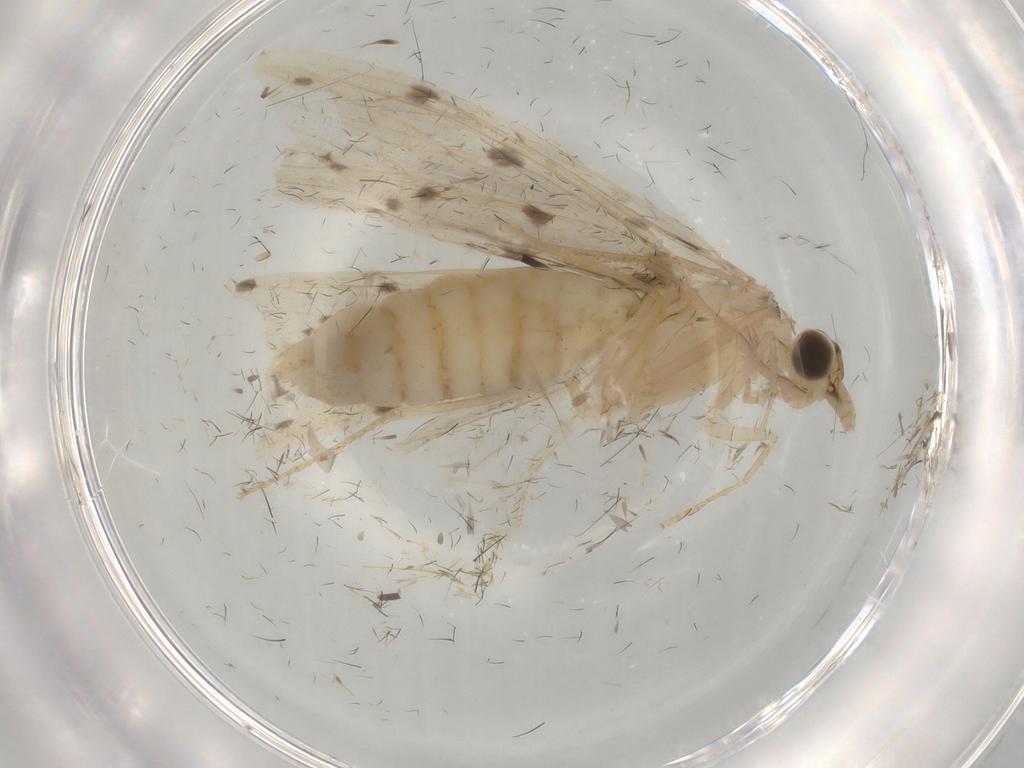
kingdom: Animalia
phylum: Arthropoda
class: Insecta
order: Trichoptera
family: Leptoceridae
